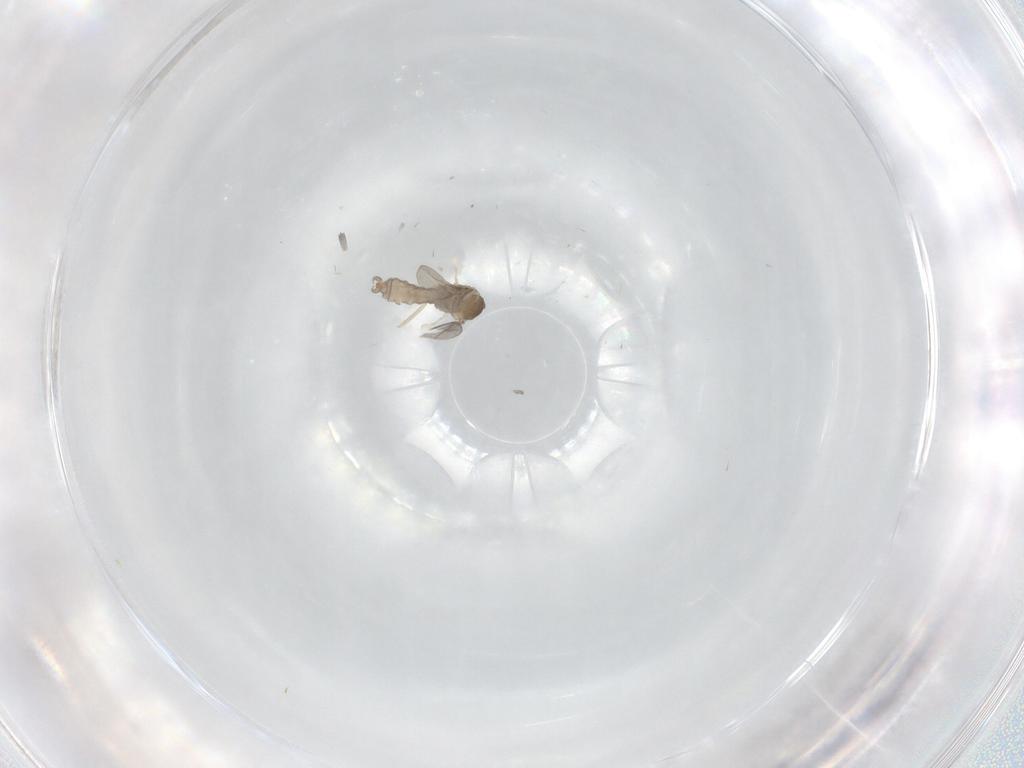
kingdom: Animalia
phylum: Arthropoda
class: Insecta
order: Diptera
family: Limoniidae
